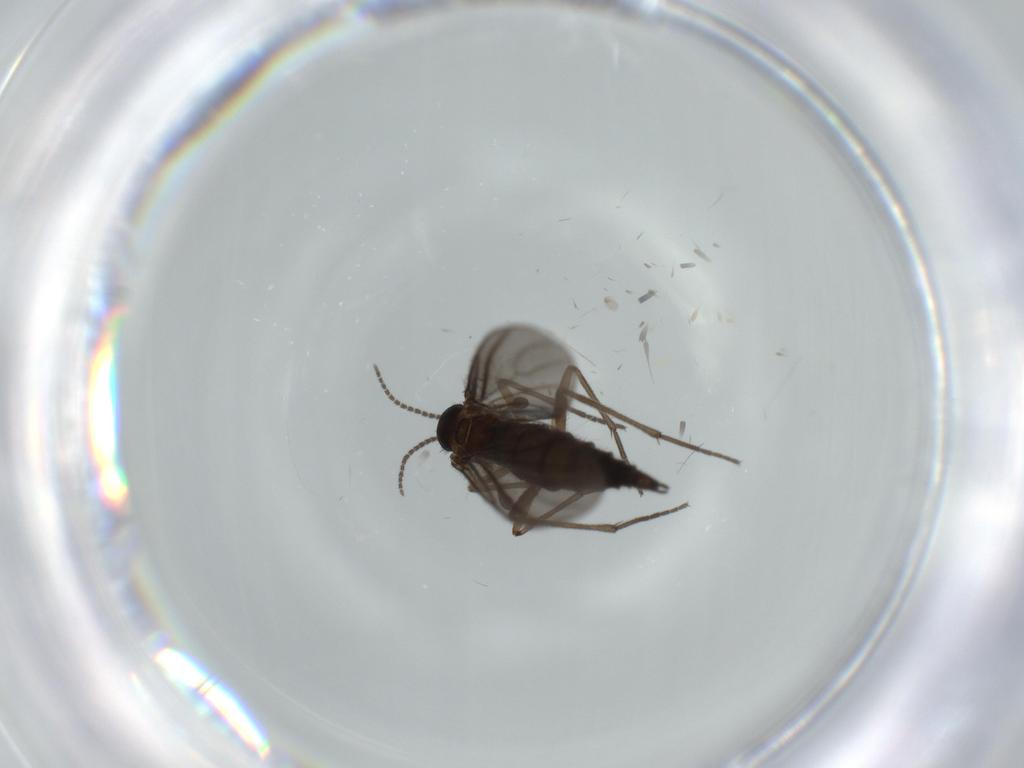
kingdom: Animalia
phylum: Arthropoda
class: Insecta
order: Diptera
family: Sciaridae
